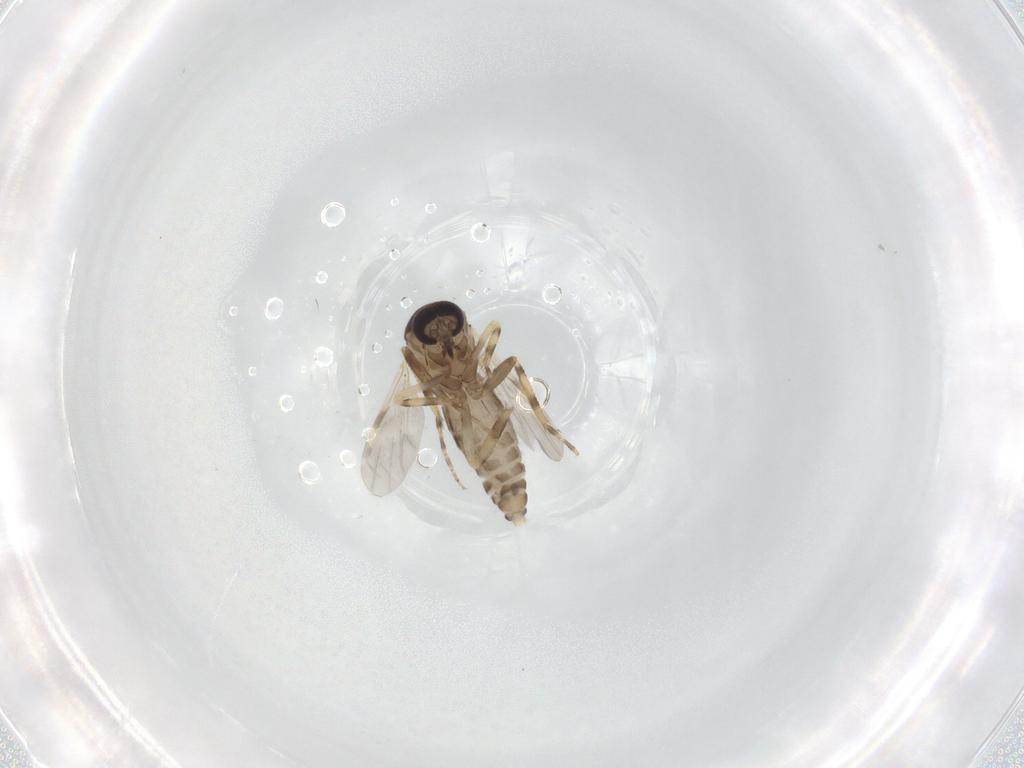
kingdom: Animalia
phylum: Arthropoda
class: Insecta
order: Diptera
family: Ceratopogonidae
